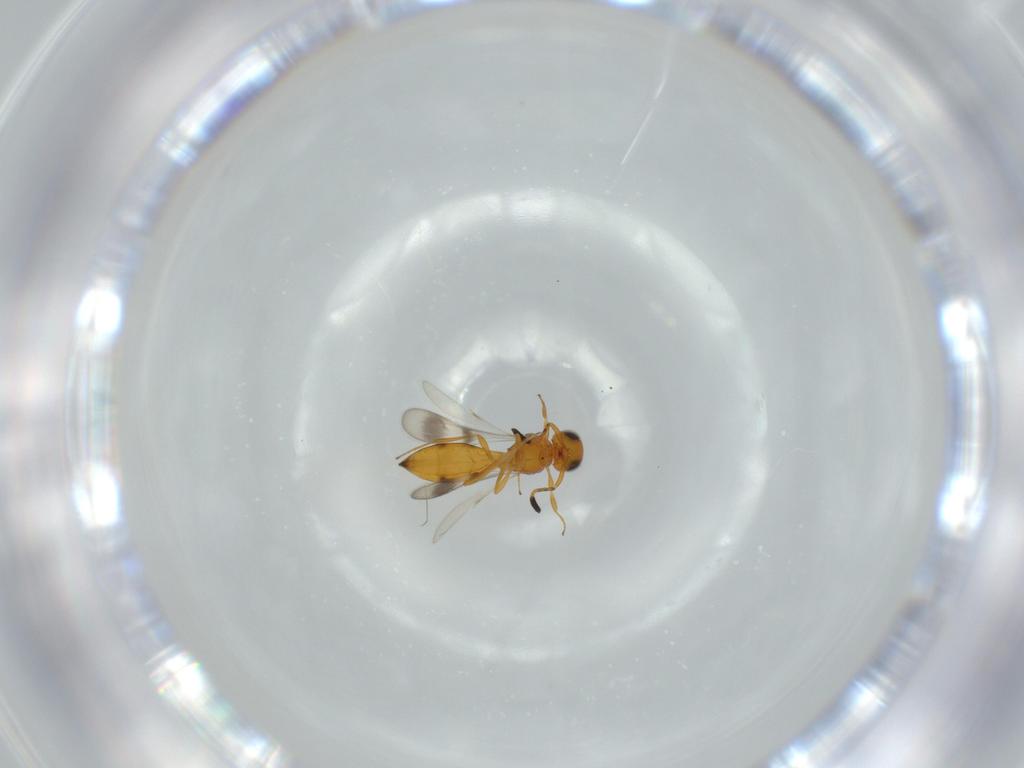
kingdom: Animalia
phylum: Arthropoda
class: Insecta
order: Hymenoptera
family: Scelionidae
